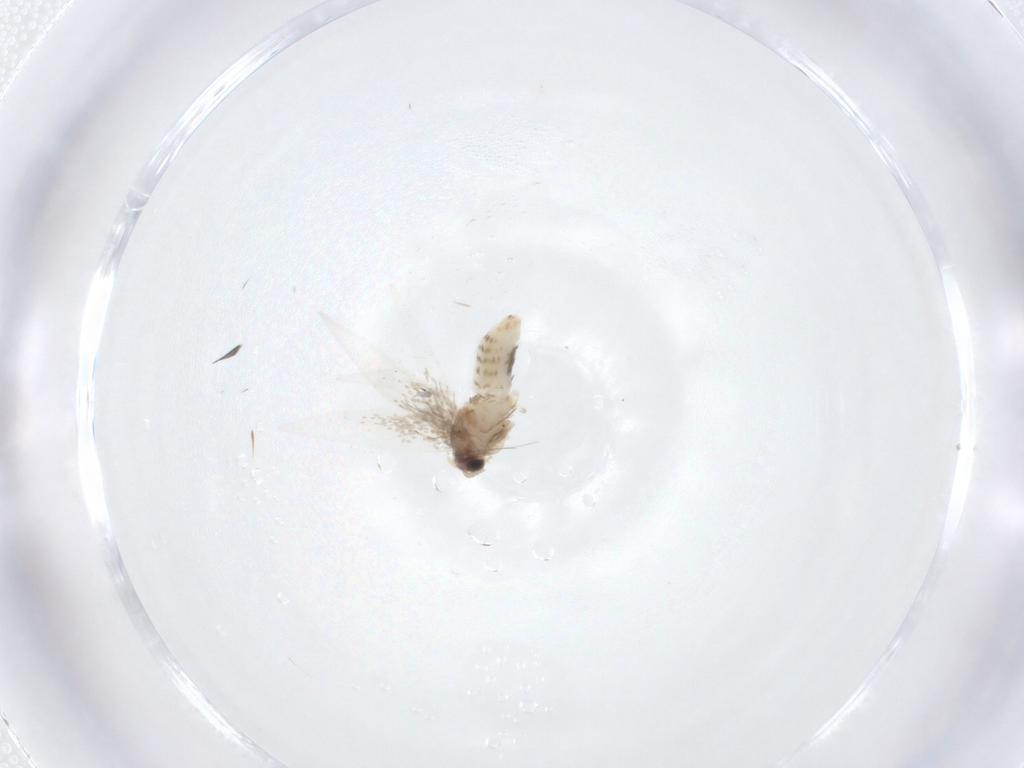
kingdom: Animalia
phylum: Arthropoda
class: Insecta
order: Lepidoptera
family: Nepticulidae
